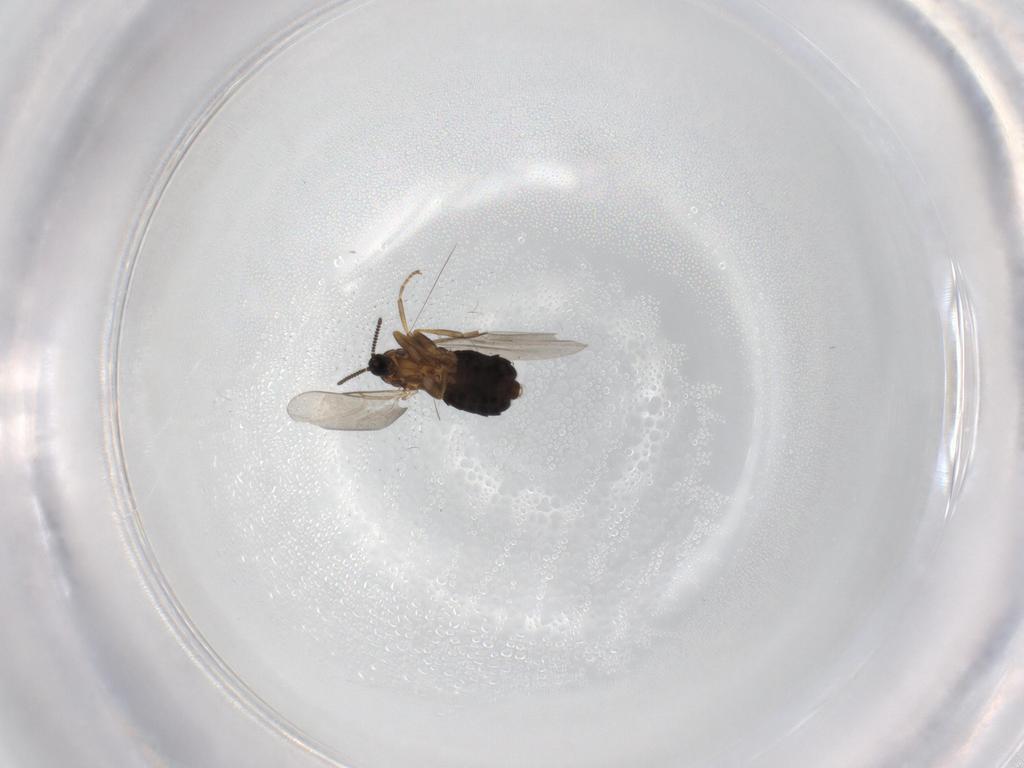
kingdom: Animalia
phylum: Arthropoda
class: Insecta
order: Diptera
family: Scatopsidae
